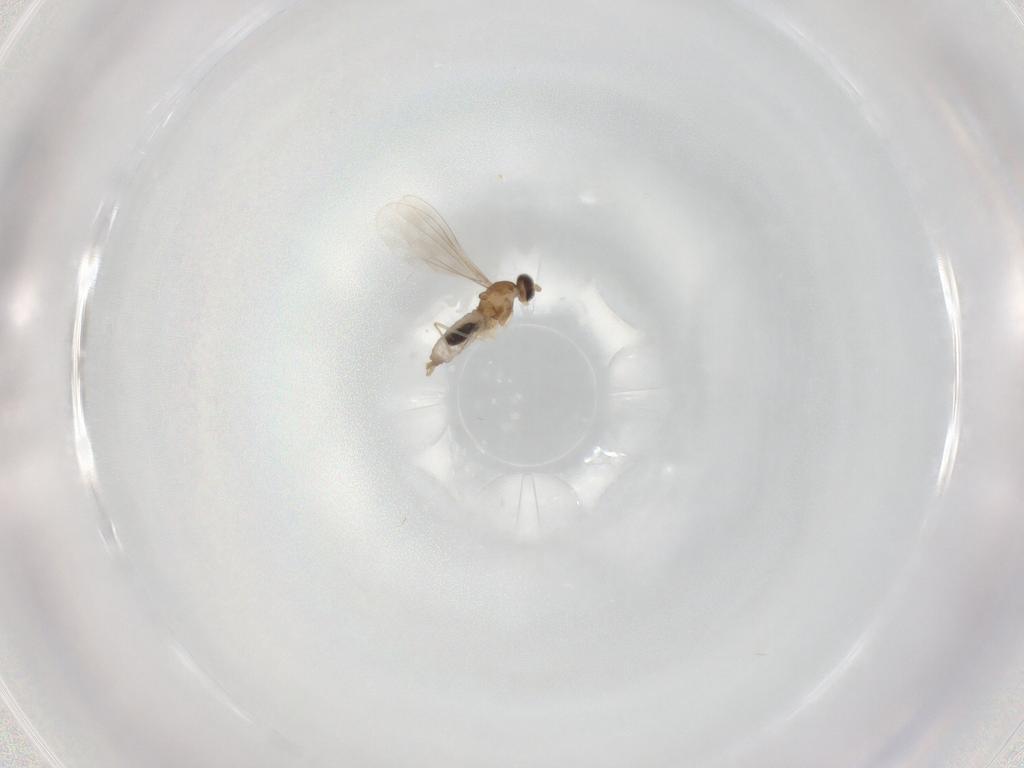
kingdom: Animalia
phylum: Arthropoda
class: Insecta
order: Diptera
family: Cecidomyiidae
